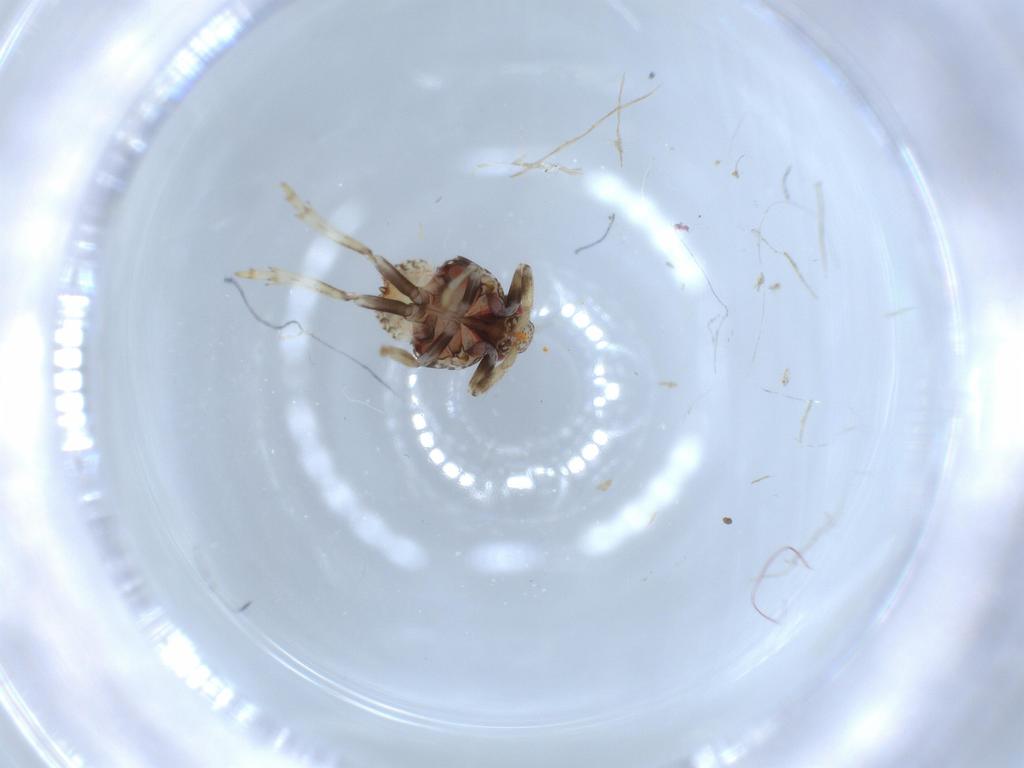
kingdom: Animalia
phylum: Arthropoda
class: Insecta
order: Hemiptera
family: Issidae
